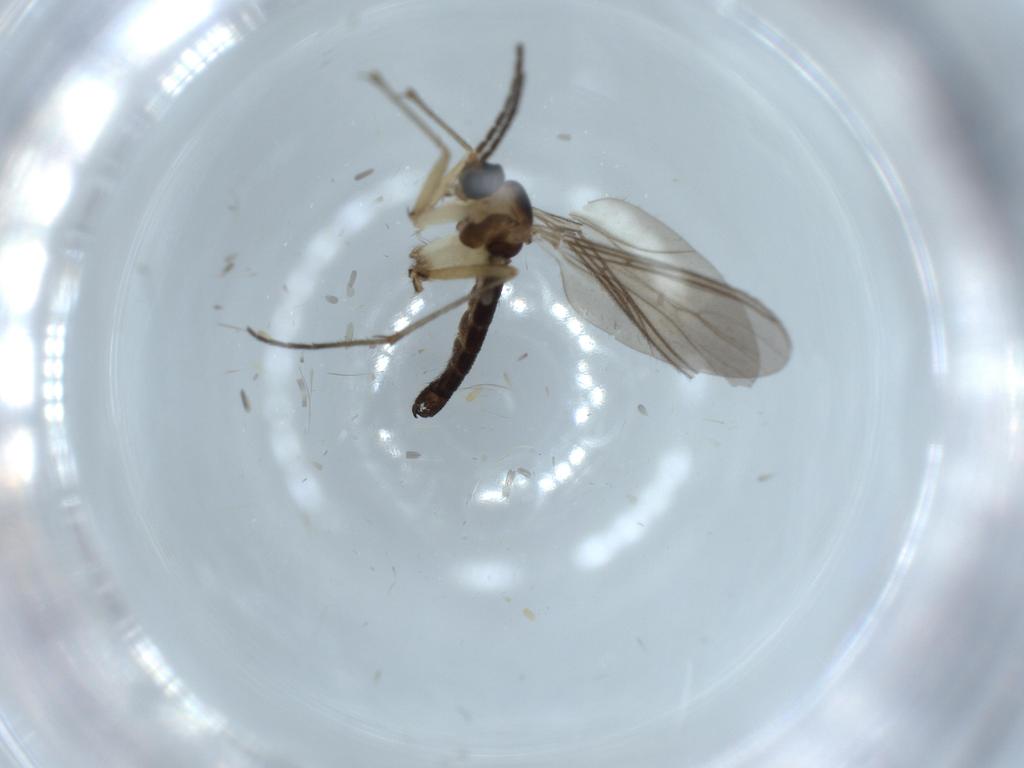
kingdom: Animalia
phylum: Arthropoda
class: Insecta
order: Diptera
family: Sciaridae
